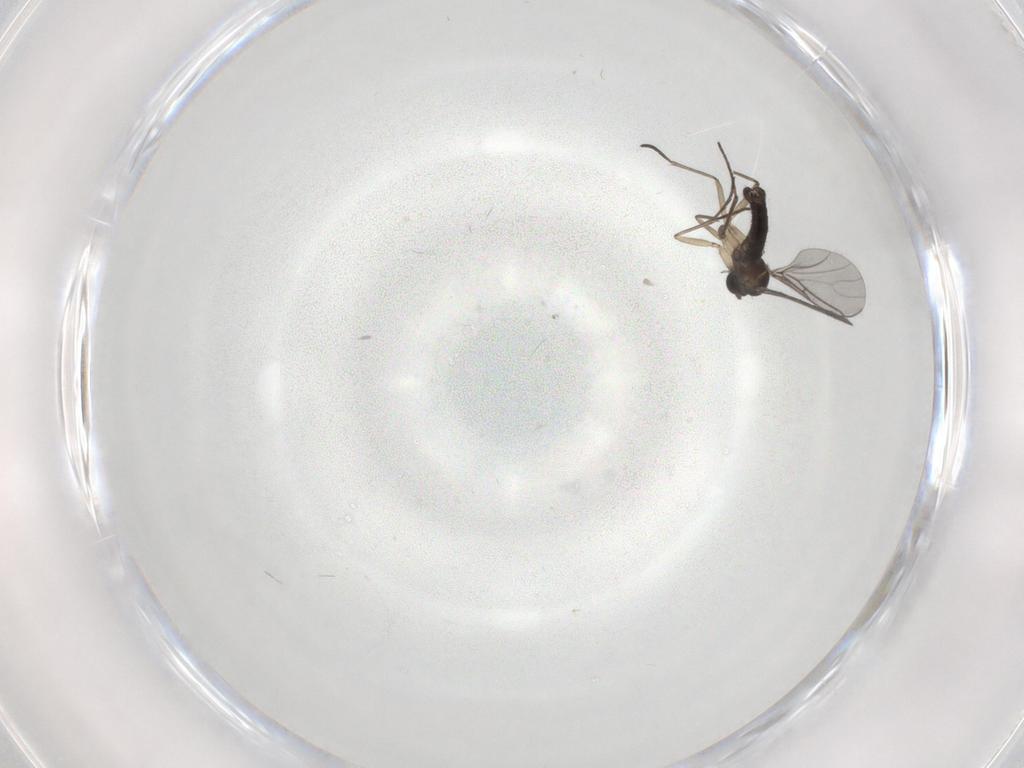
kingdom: Animalia
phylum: Arthropoda
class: Insecta
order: Diptera
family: Sciaridae
